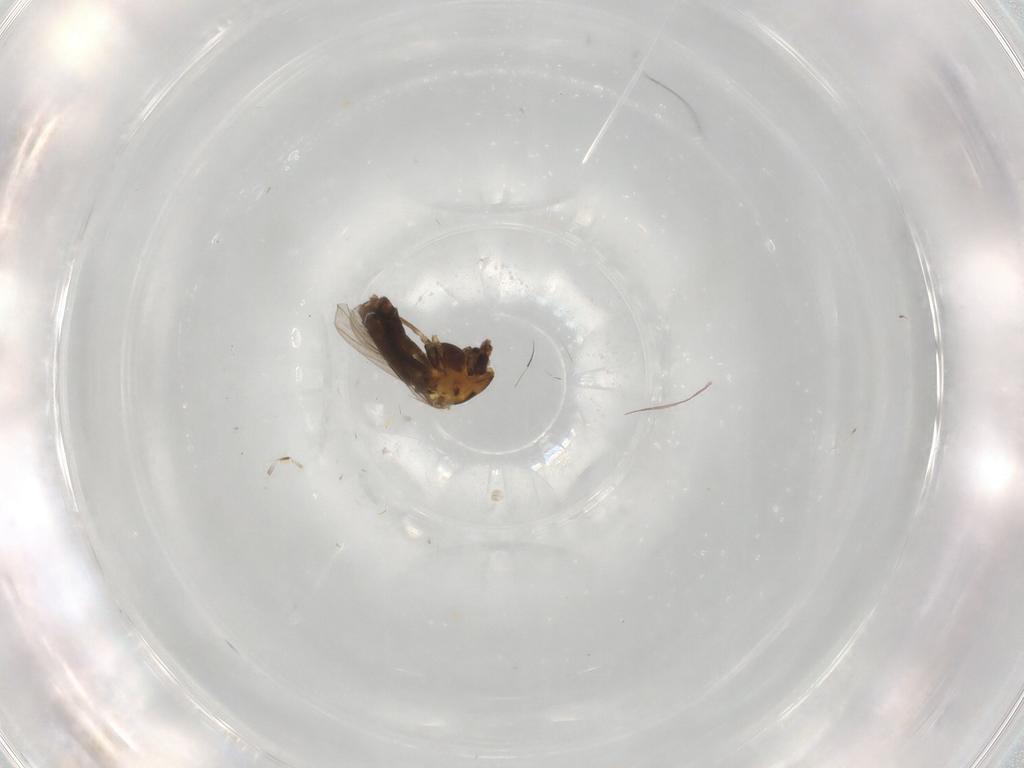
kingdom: Animalia
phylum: Arthropoda
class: Insecta
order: Diptera
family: Chironomidae
